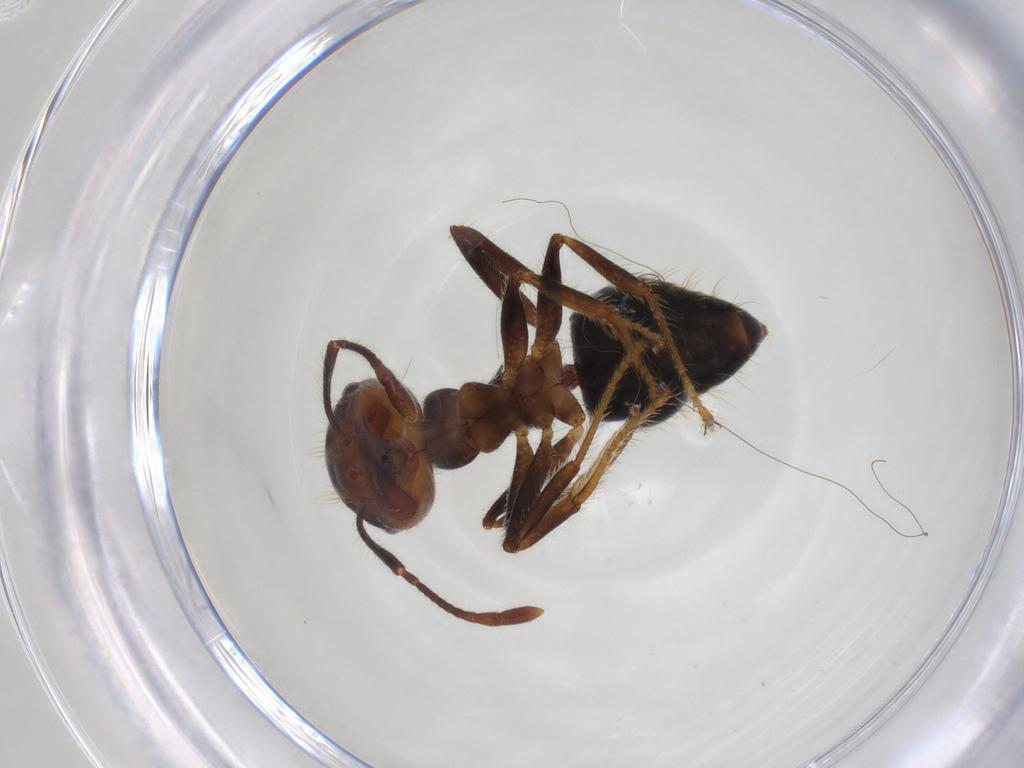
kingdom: Animalia
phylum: Arthropoda
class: Insecta
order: Hymenoptera
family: Formicidae
